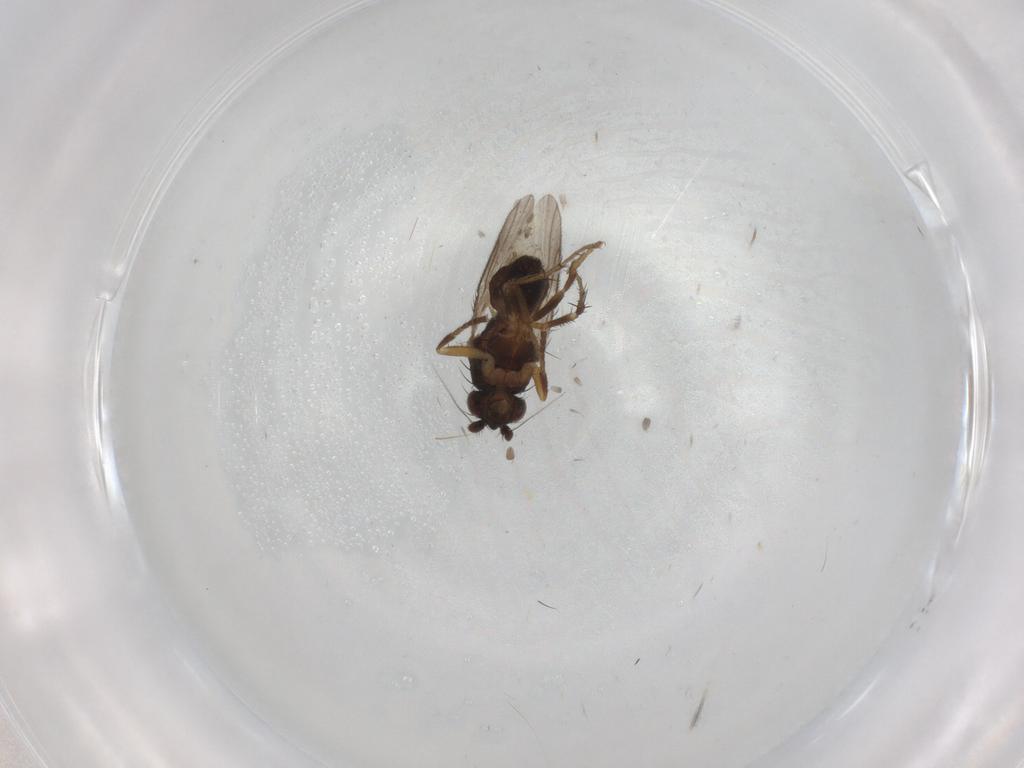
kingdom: Animalia
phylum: Arthropoda
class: Insecta
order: Diptera
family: Sphaeroceridae
